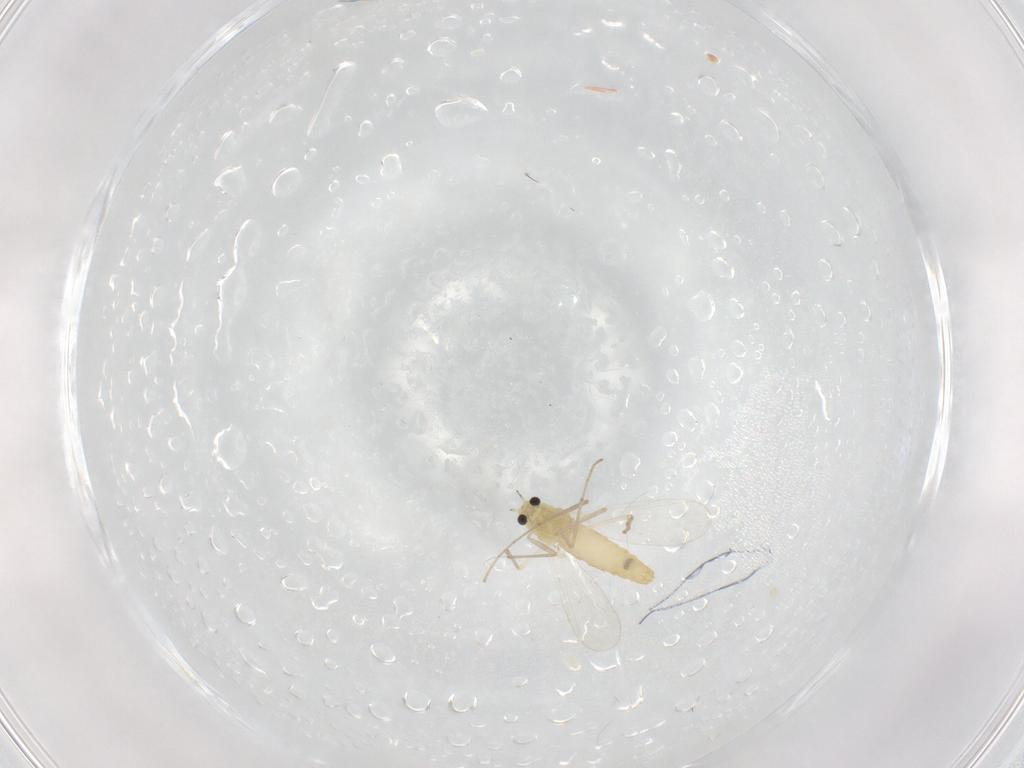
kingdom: Animalia
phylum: Arthropoda
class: Insecta
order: Diptera
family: Chironomidae
